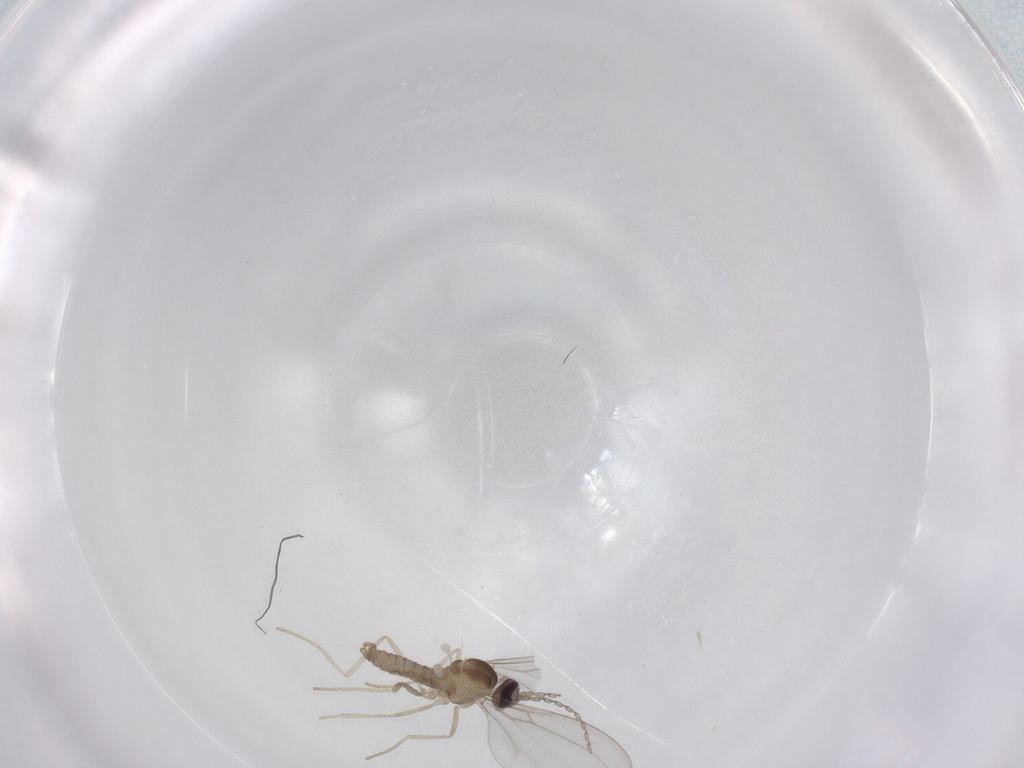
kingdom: Animalia
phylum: Arthropoda
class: Insecta
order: Diptera
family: Cecidomyiidae
